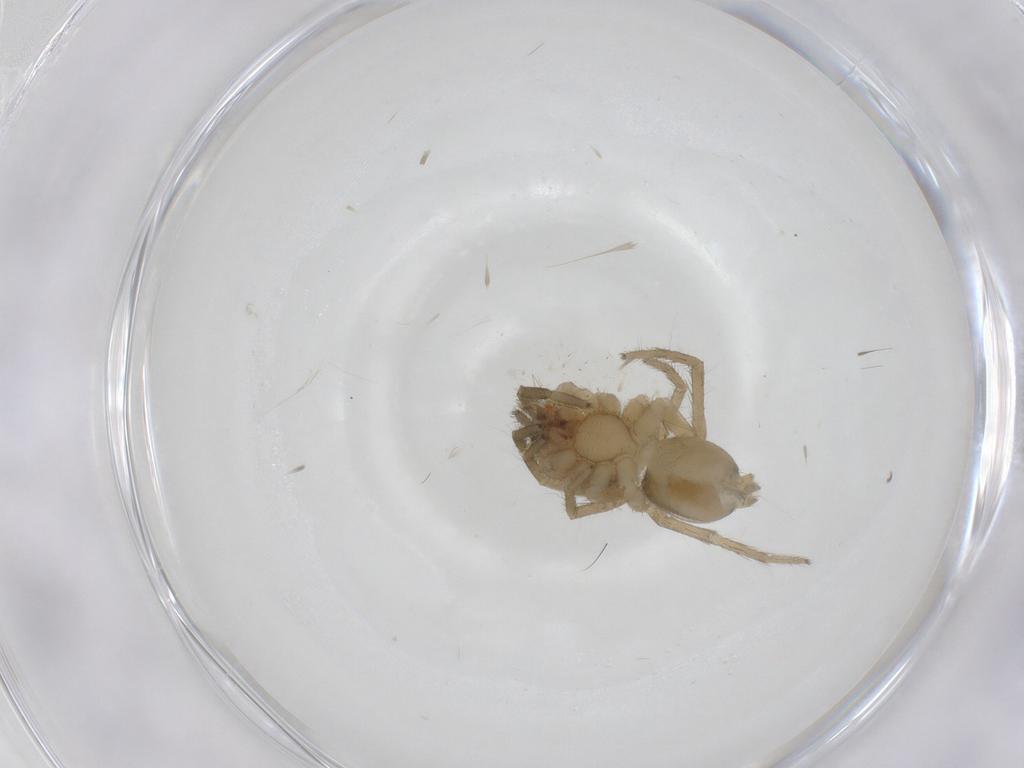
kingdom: Animalia
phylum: Arthropoda
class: Arachnida
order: Araneae
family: Miturgidae
